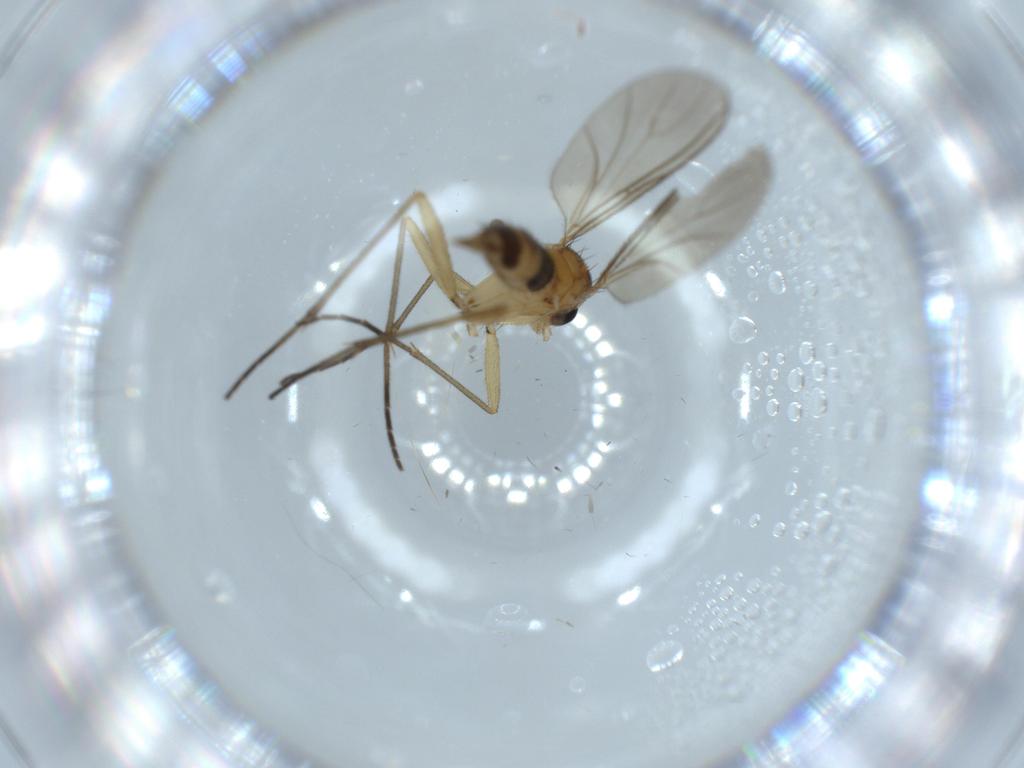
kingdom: Animalia
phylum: Arthropoda
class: Insecta
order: Diptera
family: Sciaridae
